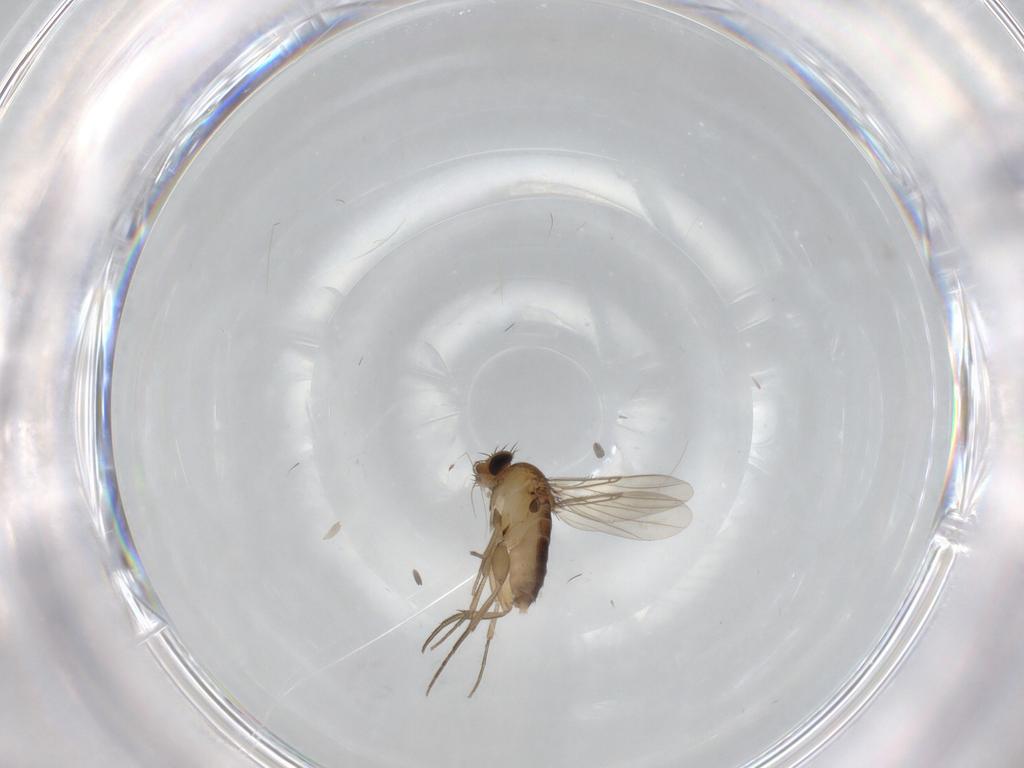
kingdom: Animalia
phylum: Arthropoda
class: Insecta
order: Diptera
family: Phoridae
